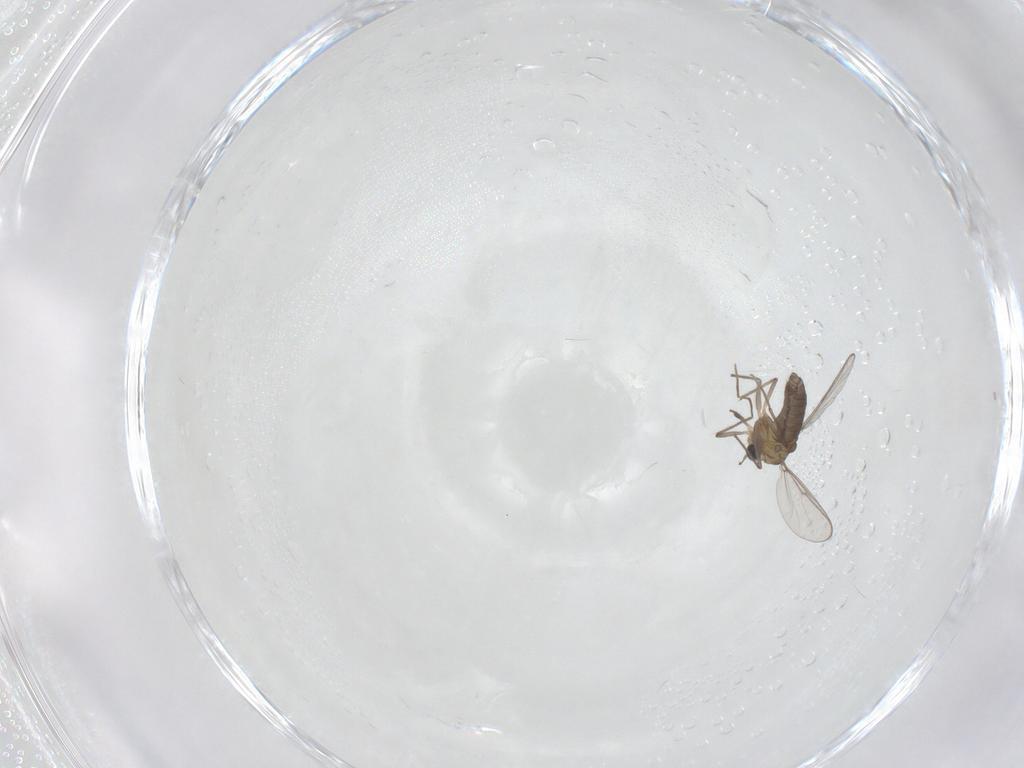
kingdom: Animalia
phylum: Arthropoda
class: Insecta
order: Diptera
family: Chironomidae
